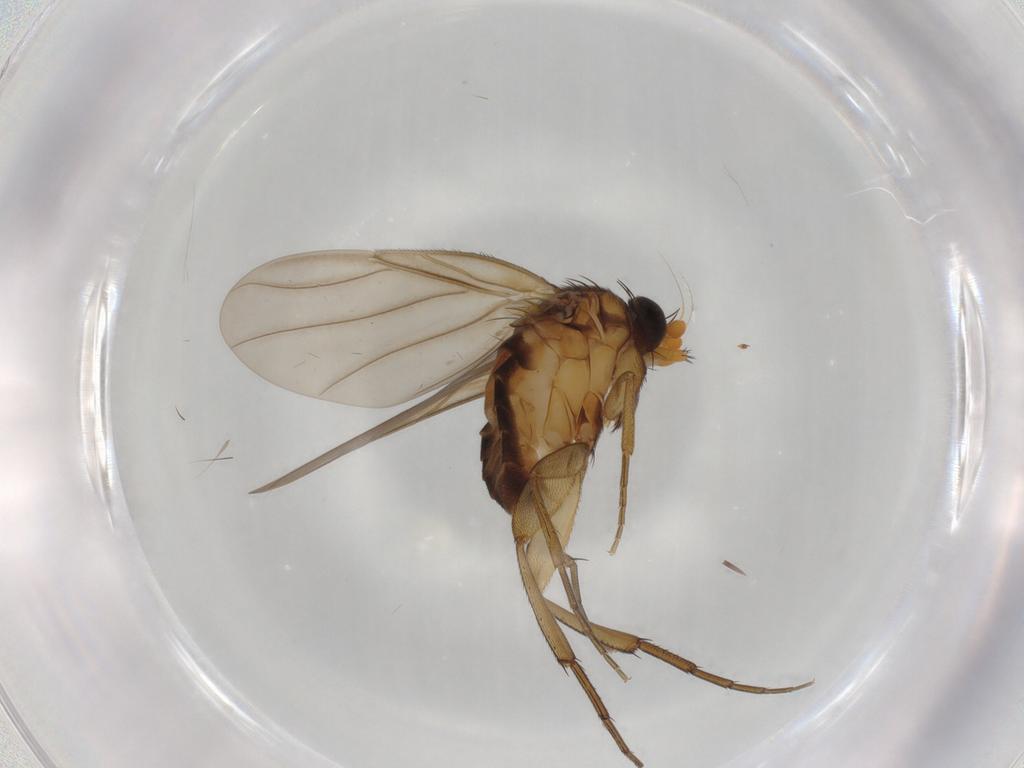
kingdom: Animalia
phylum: Arthropoda
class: Insecta
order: Diptera
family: Phoridae
